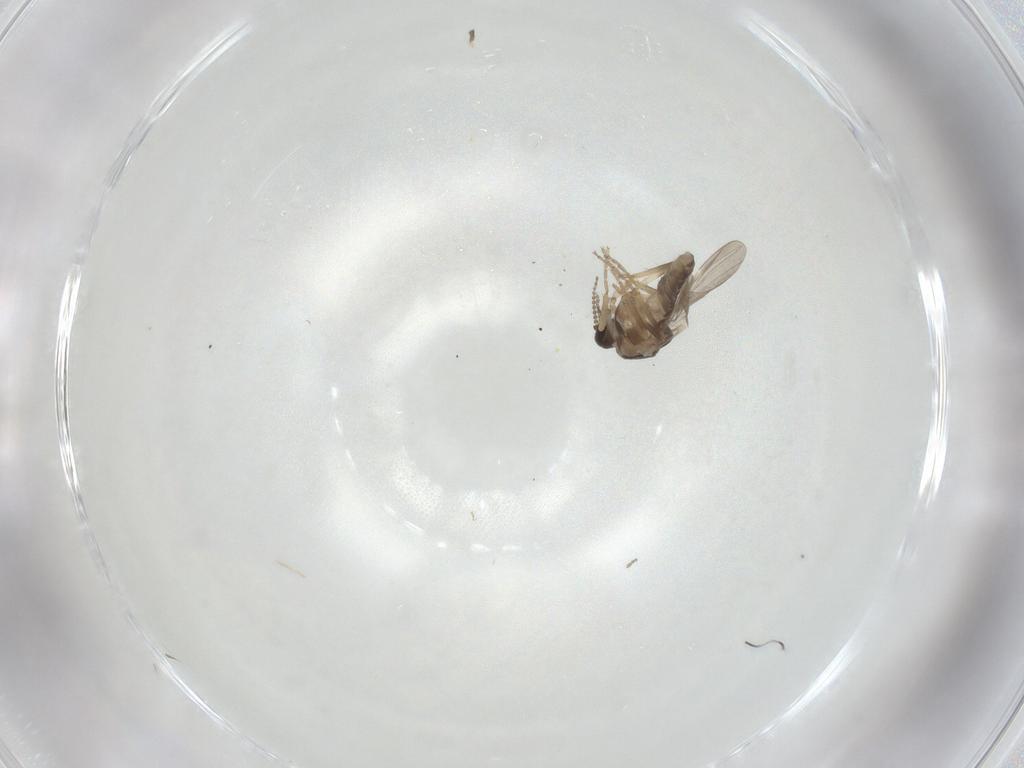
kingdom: Animalia
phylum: Arthropoda
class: Insecta
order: Diptera
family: Ceratopogonidae
